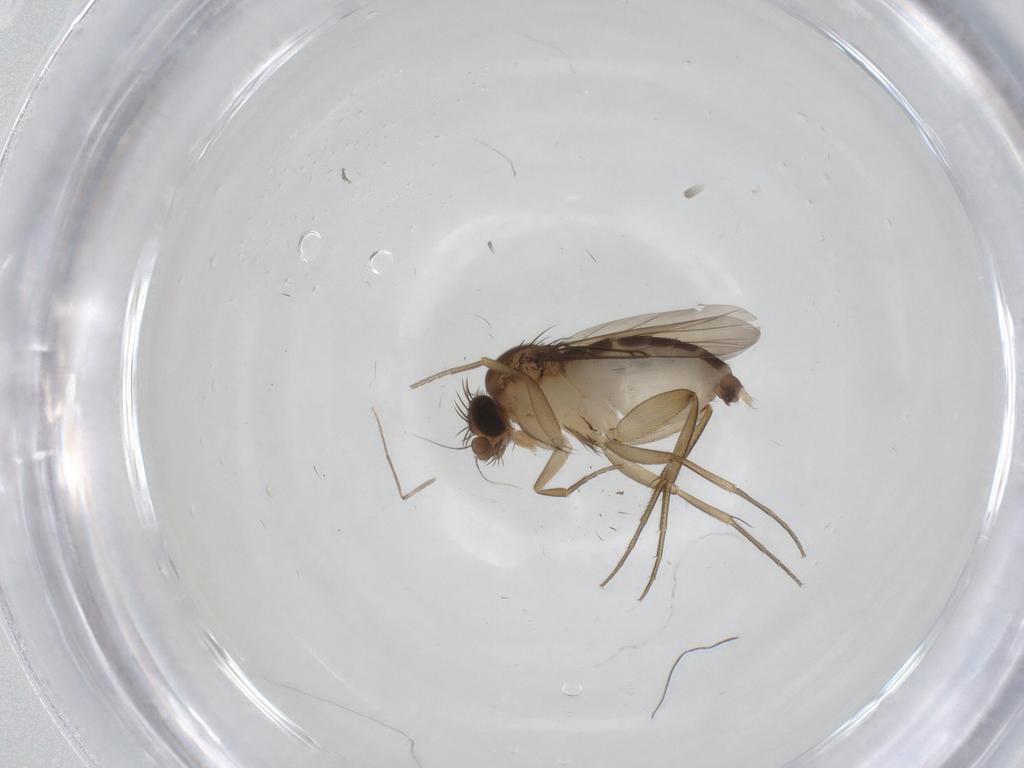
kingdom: Animalia
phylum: Arthropoda
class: Insecta
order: Diptera
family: Phoridae
